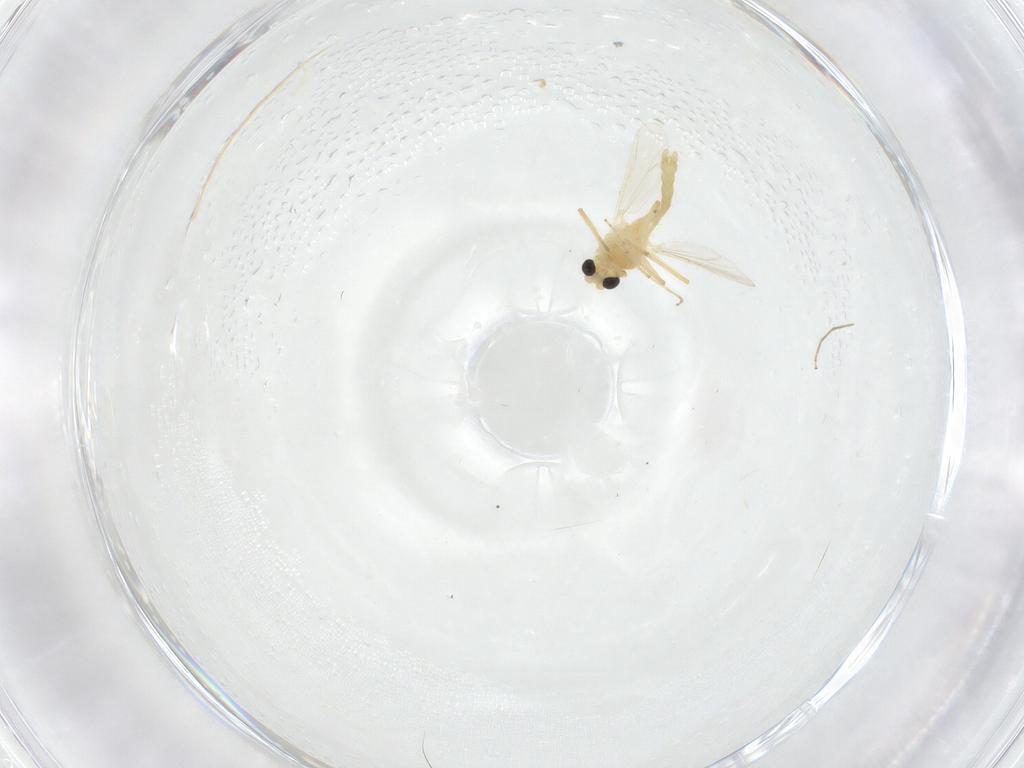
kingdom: Animalia
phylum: Arthropoda
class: Insecta
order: Diptera
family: Chironomidae
